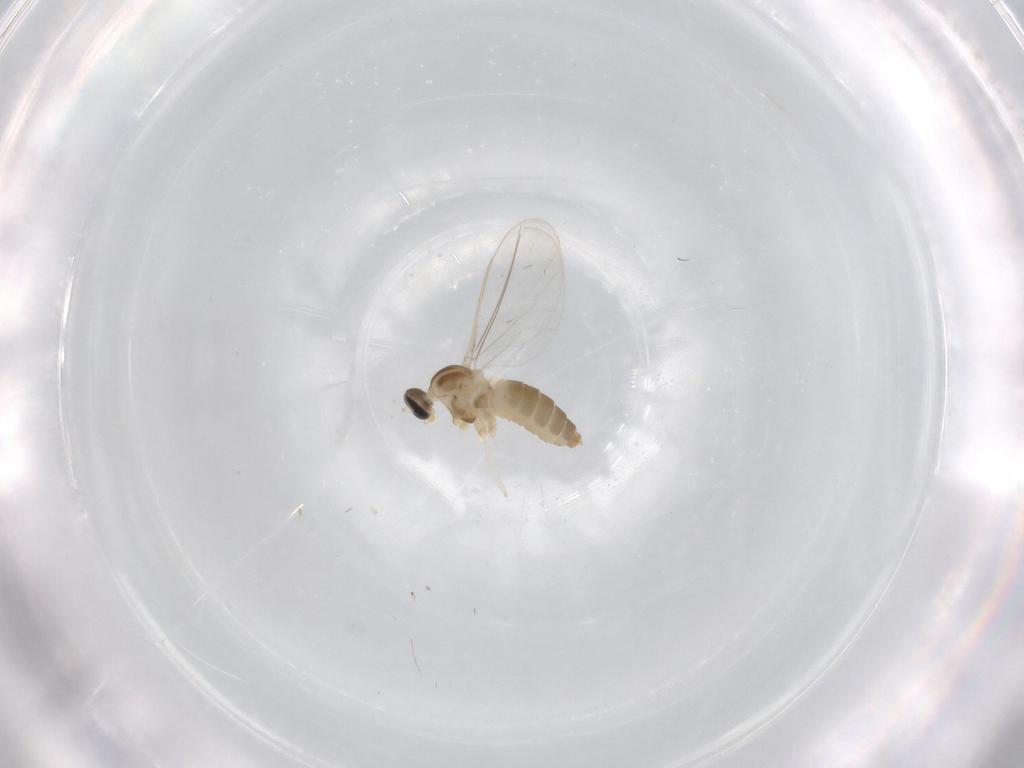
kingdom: Animalia
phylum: Arthropoda
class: Insecta
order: Diptera
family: Cecidomyiidae
